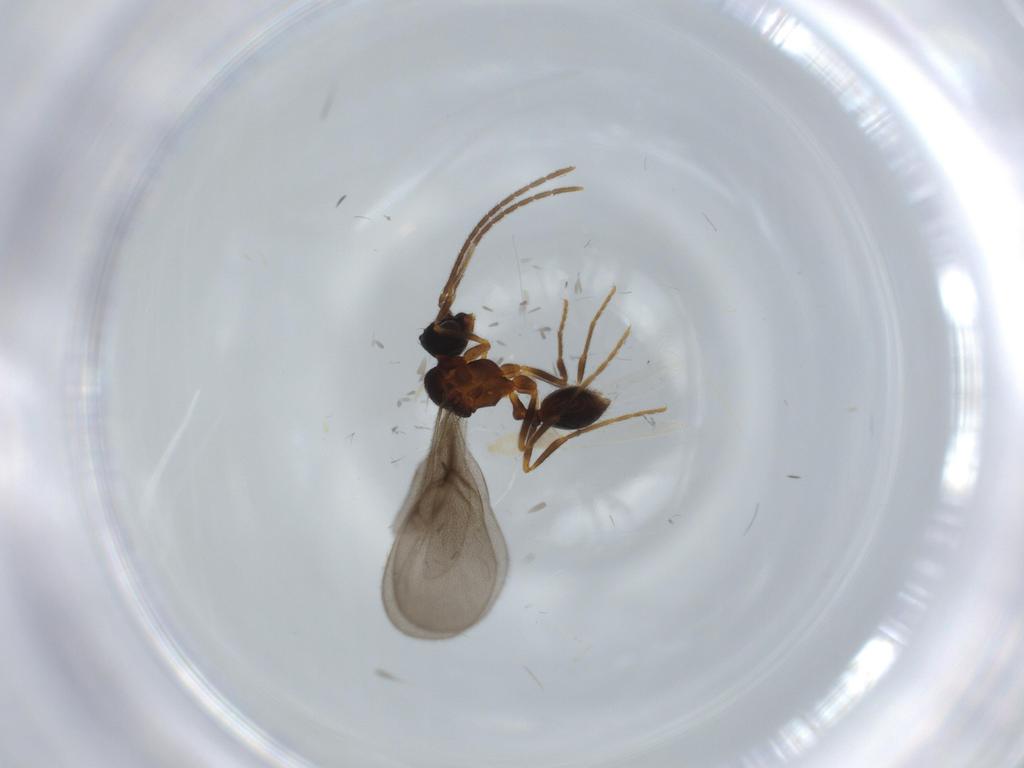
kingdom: Animalia
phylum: Arthropoda
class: Insecta
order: Hymenoptera
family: Formicidae
